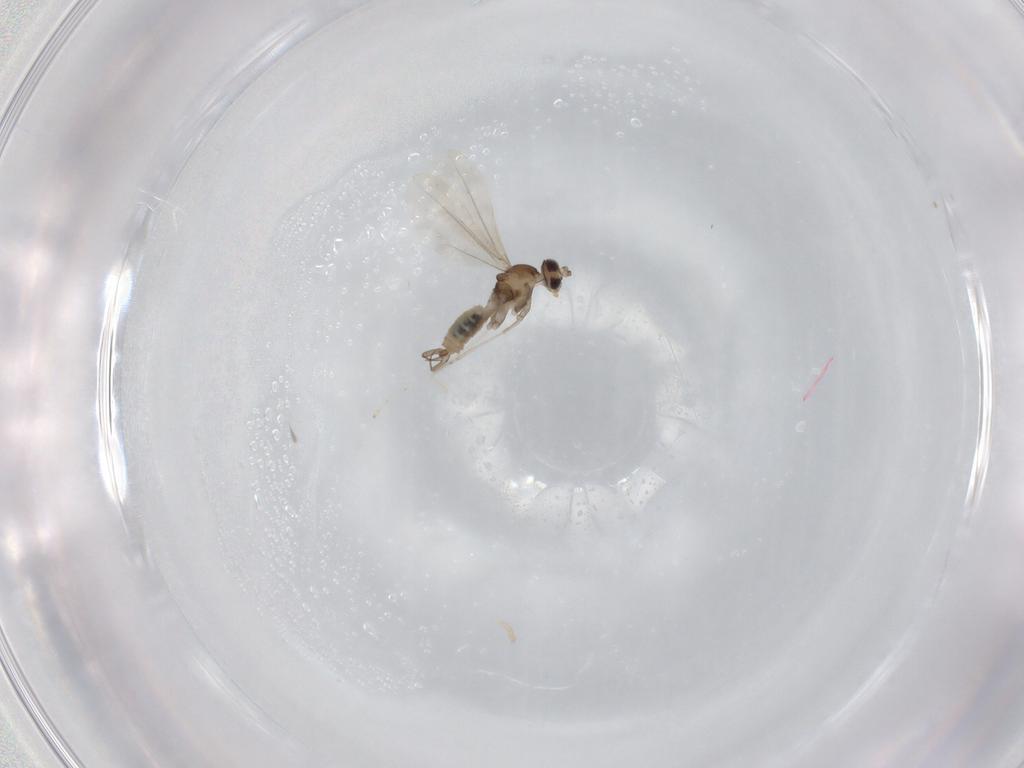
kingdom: Animalia
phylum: Arthropoda
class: Insecta
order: Diptera
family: Cecidomyiidae
